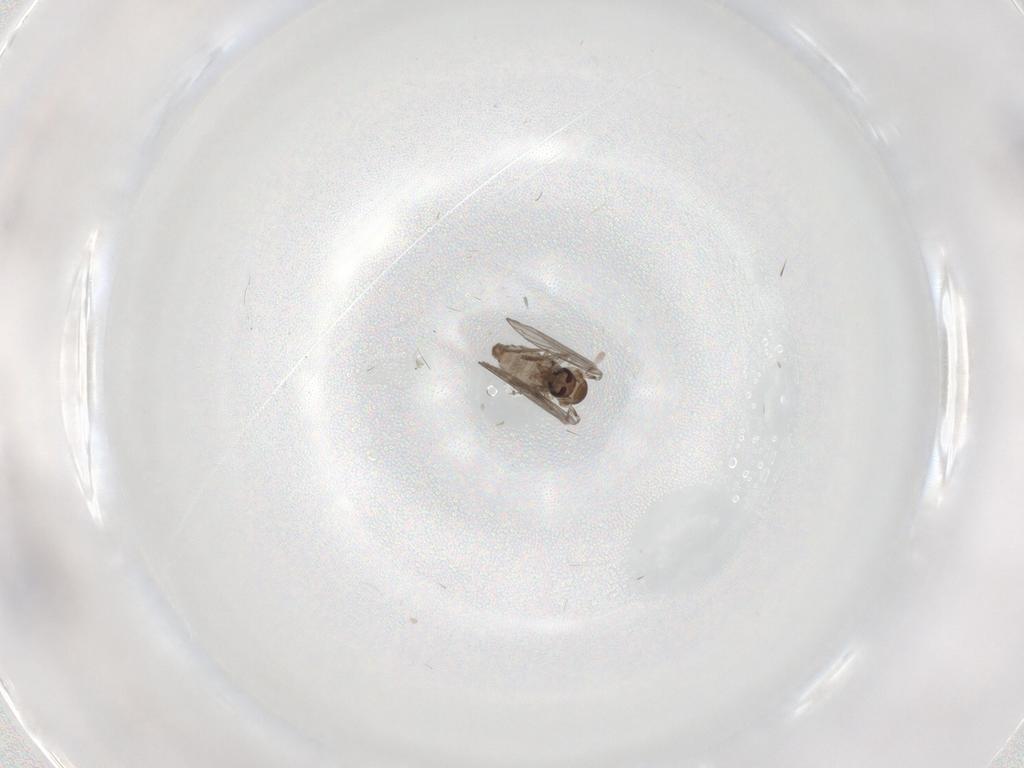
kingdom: Animalia
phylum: Arthropoda
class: Insecta
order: Diptera
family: Psychodidae
